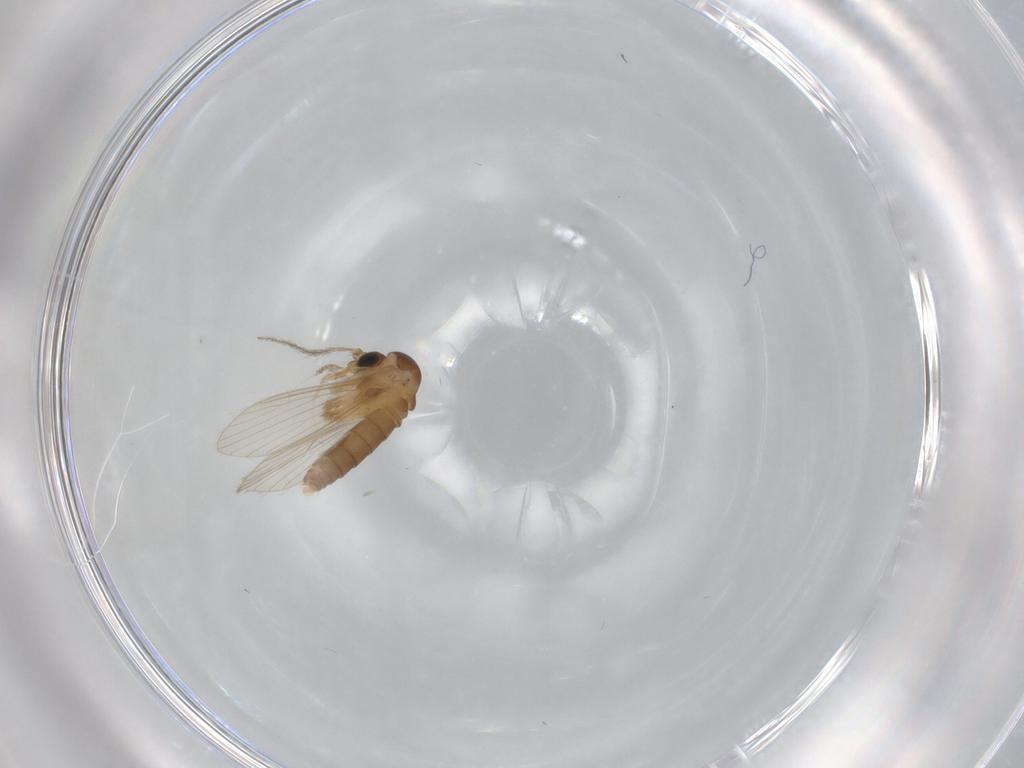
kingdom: Animalia
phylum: Arthropoda
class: Insecta
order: Diptera
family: Psychodidae
